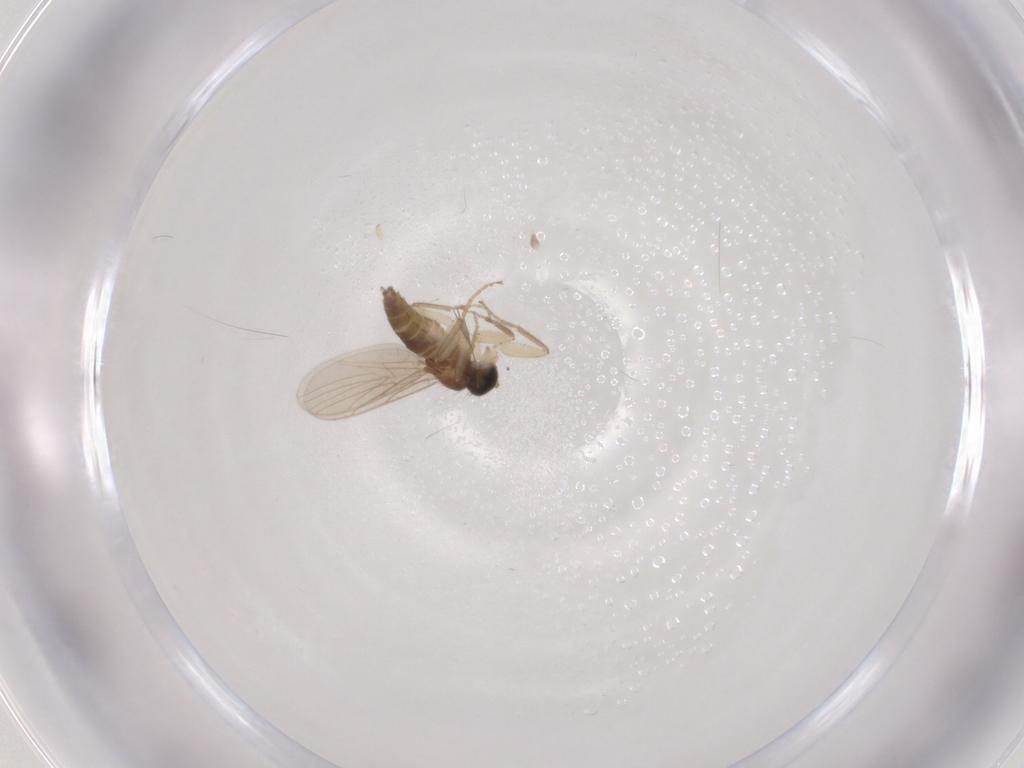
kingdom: Animalia
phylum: Arthropoda
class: Insecta
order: Diptera
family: Hybotidae
